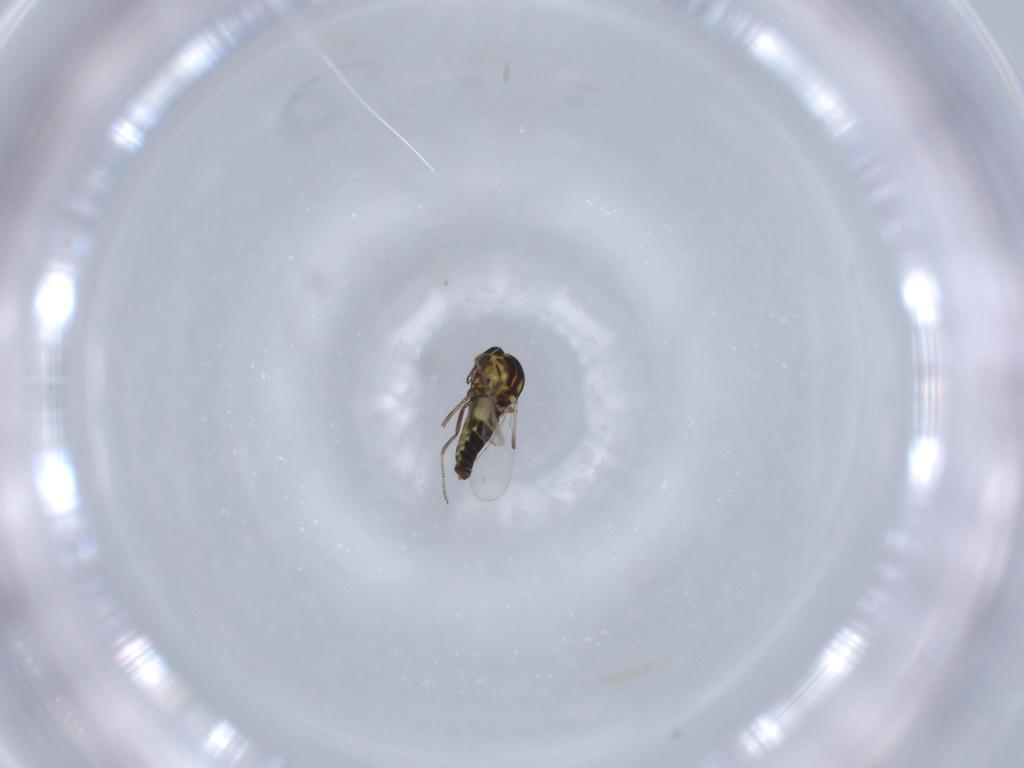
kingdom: Animalia
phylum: Arthropoda
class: Insecta
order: Diptera
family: Ceratopogonidae
